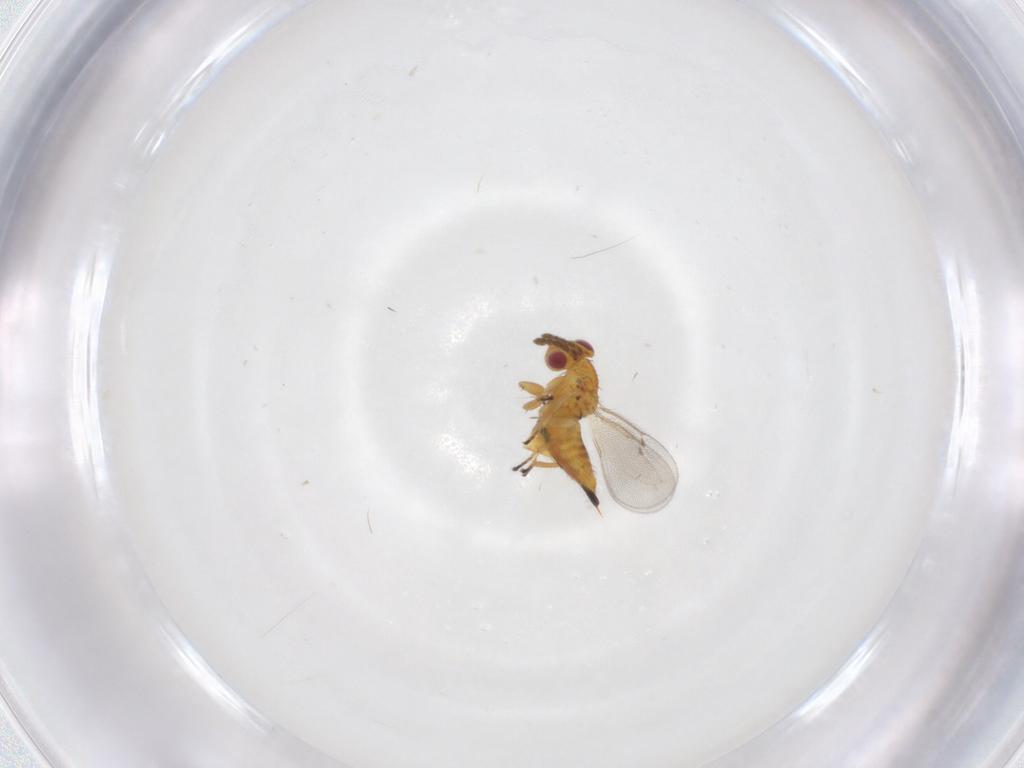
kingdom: Animalia
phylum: Arthropoda
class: Insecta
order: Hymenoptera
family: Eulophidae
